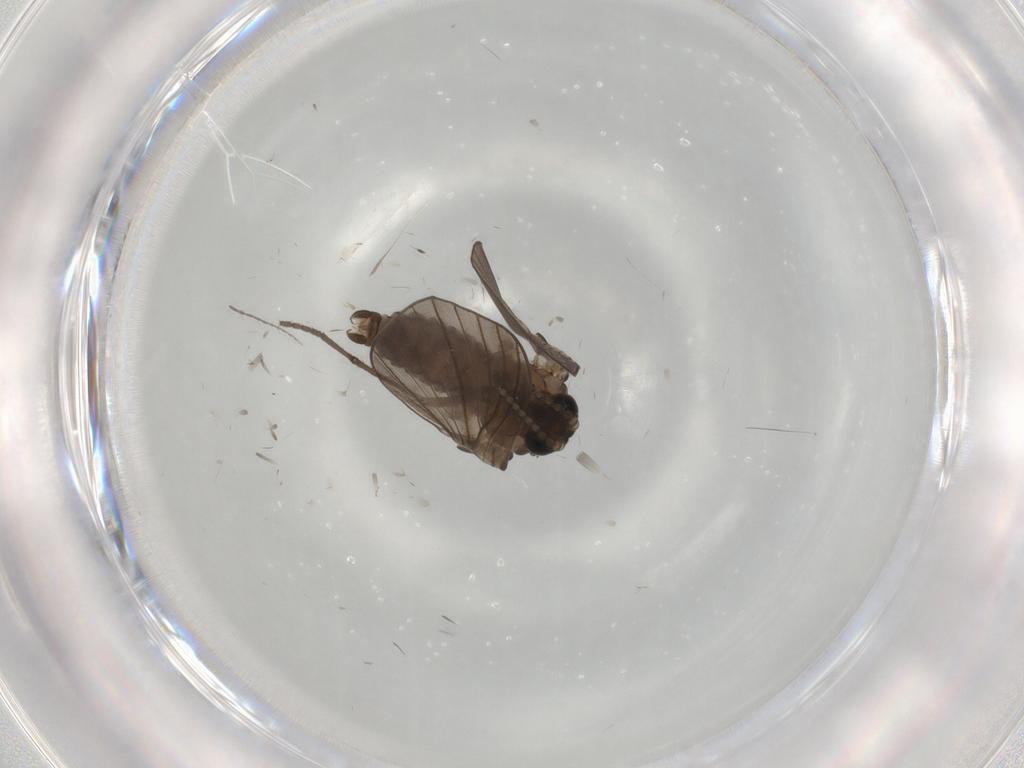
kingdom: Animalia
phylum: Arthropoda
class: Insecta
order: Diptera
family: Psychodidae
